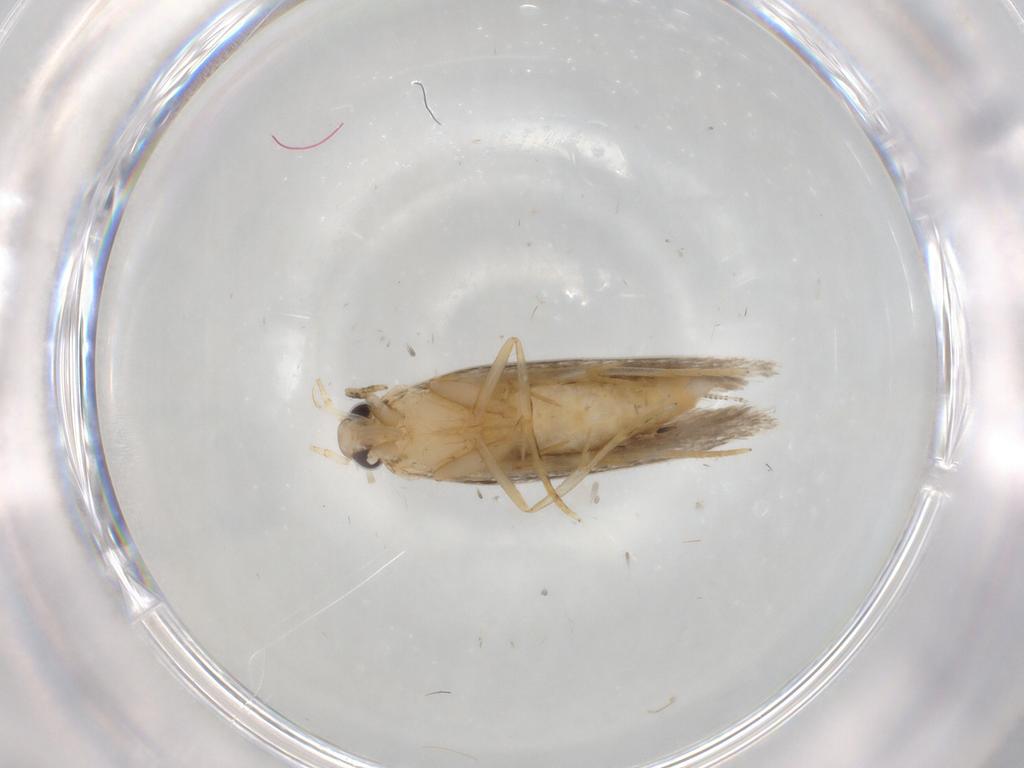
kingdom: Animalia
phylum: Arthropoda
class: Insecta
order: Lepidoptera
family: Autostichidae
